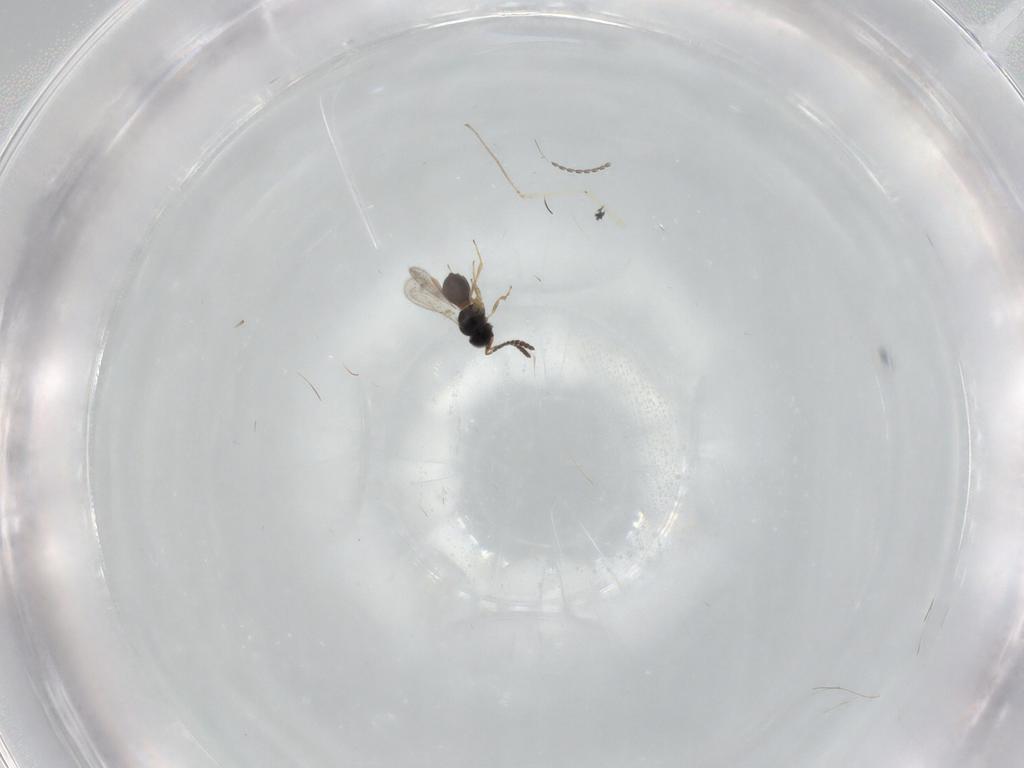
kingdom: Animalia
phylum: Arthropoda
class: Insecta
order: Hymenoptera
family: Scelionidae
